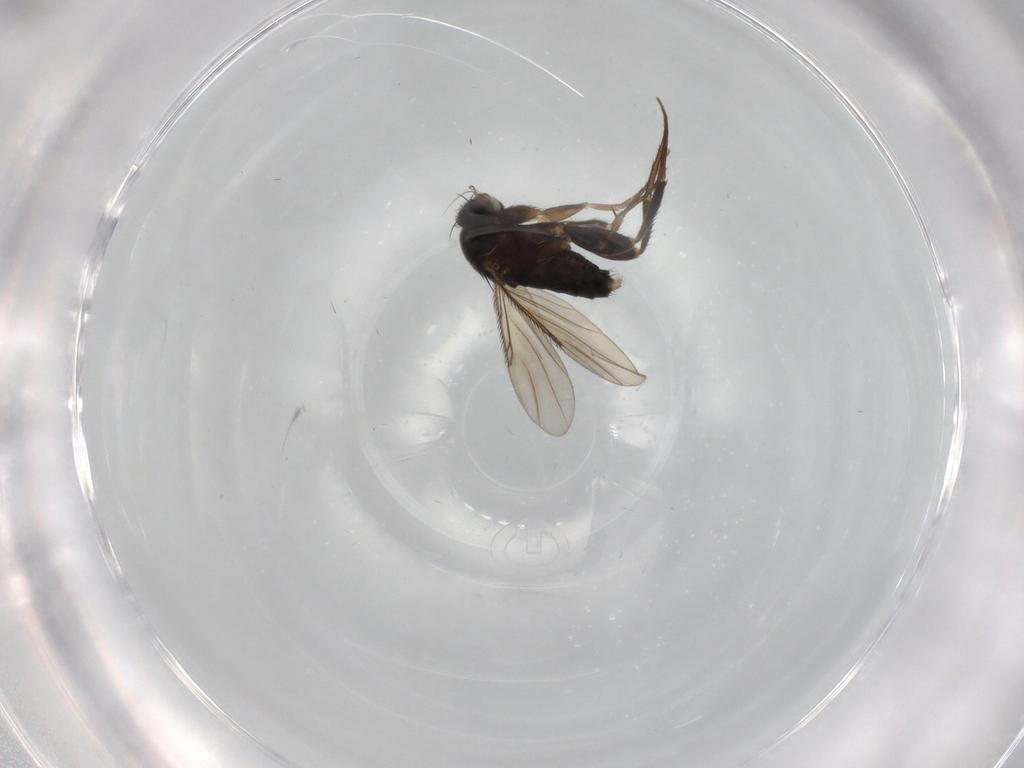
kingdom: Animalia
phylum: Arthropoda
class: Insecta
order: Diptera
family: Phoridae
